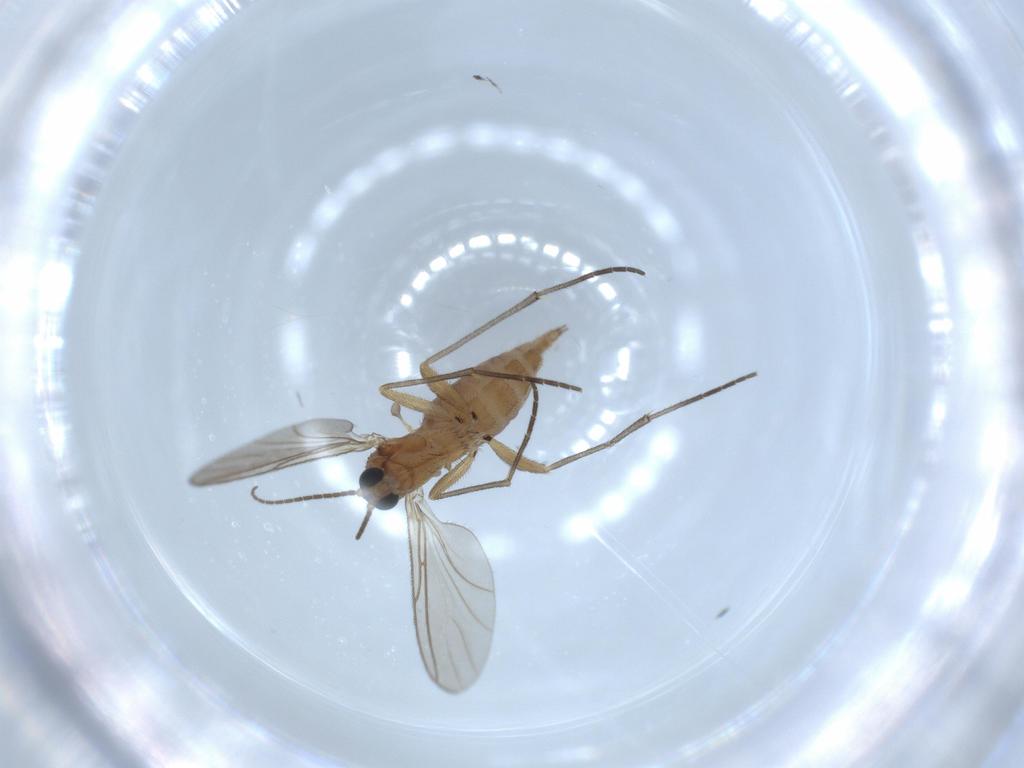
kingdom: Animalia
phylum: Arthropoda
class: Insecta
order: Diptera
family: Sciaridae
